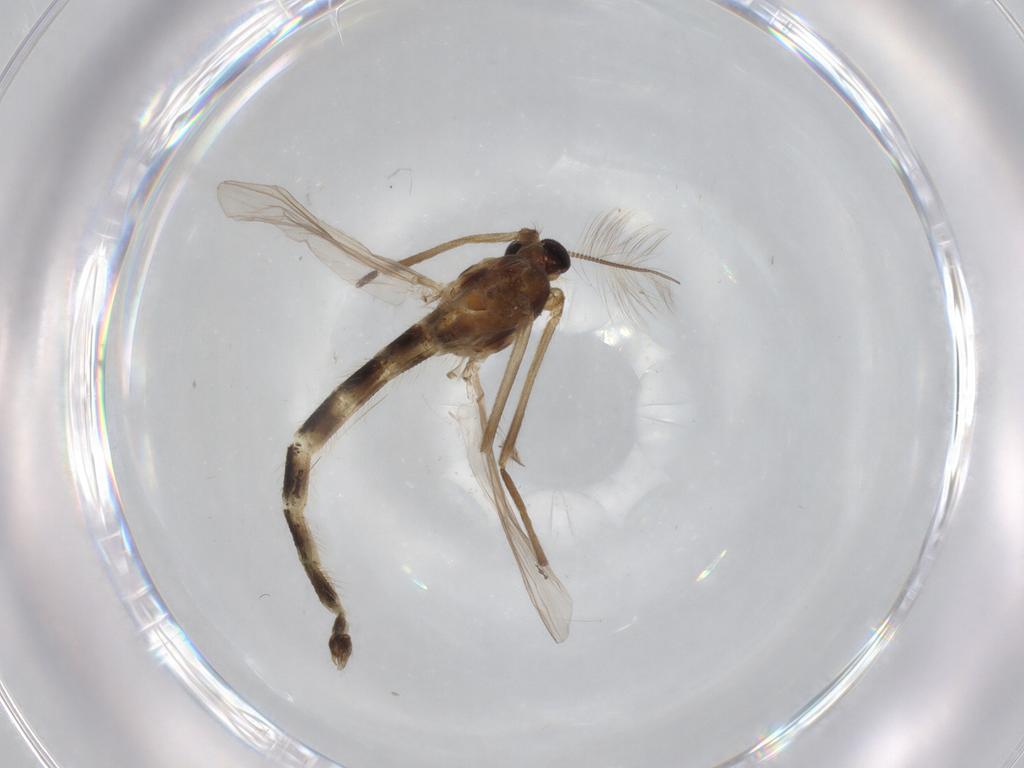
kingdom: Animalia
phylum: Arthropoda
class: Insecta
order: Diptera
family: Chironomidae
